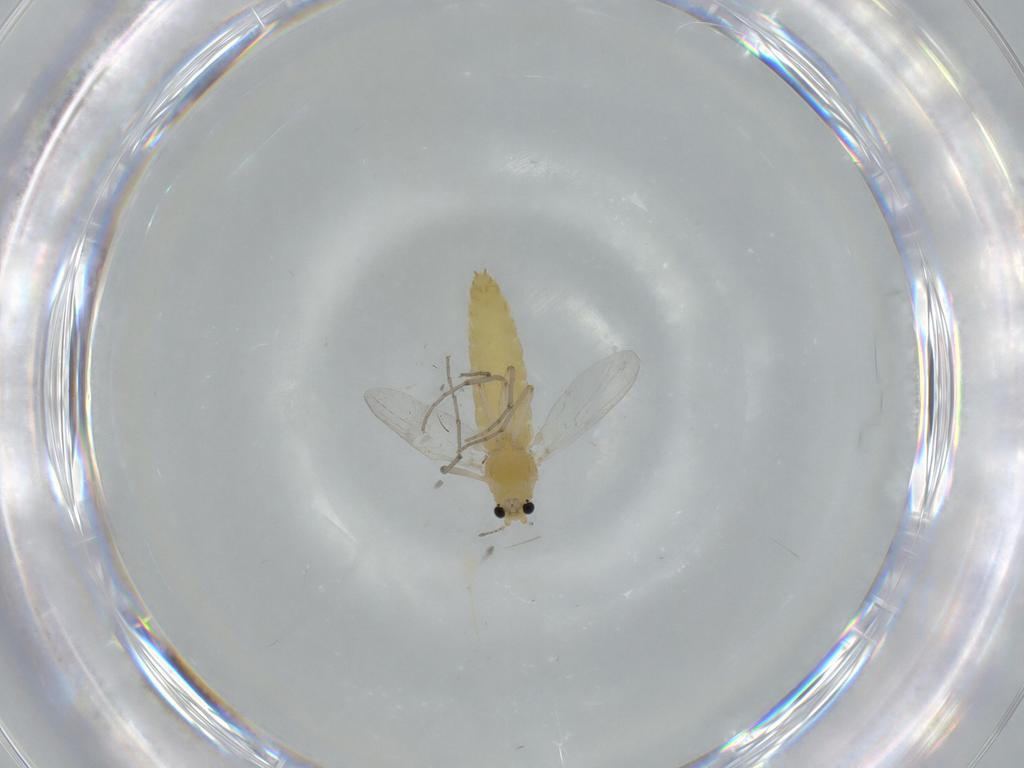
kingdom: Animalia
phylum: Arthropoda
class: Insecta
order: Diptera
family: Chironomidae
